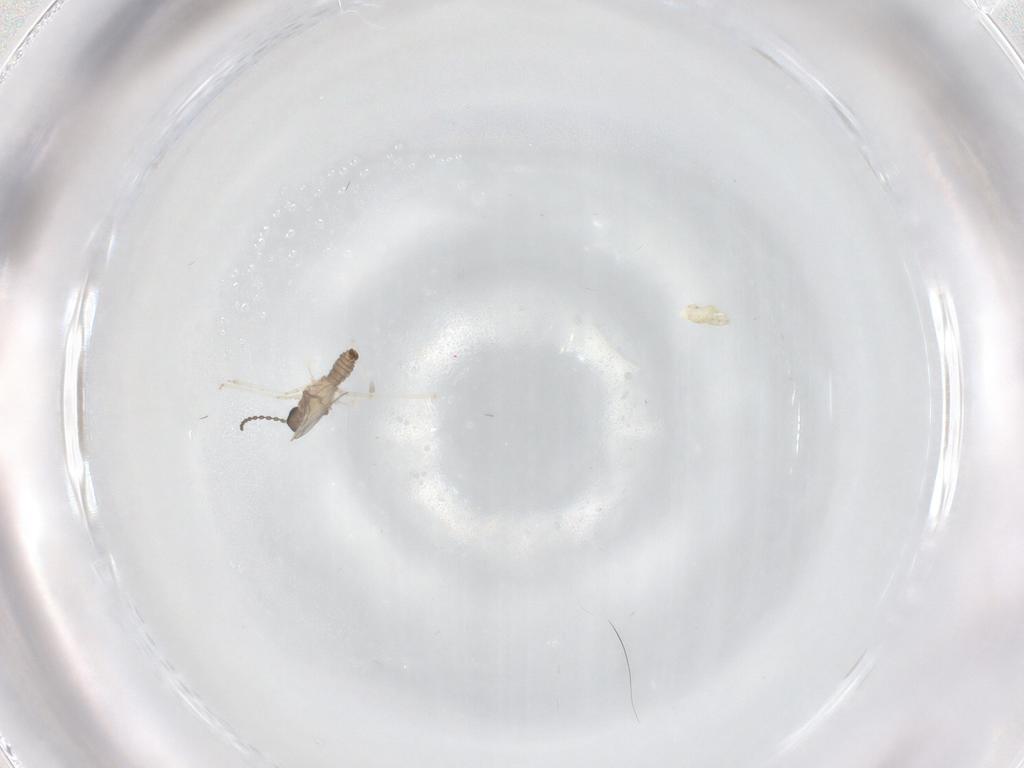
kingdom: Animalia
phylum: Arthropoda
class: Insecta
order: Diptera
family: Cecidomyiidae
